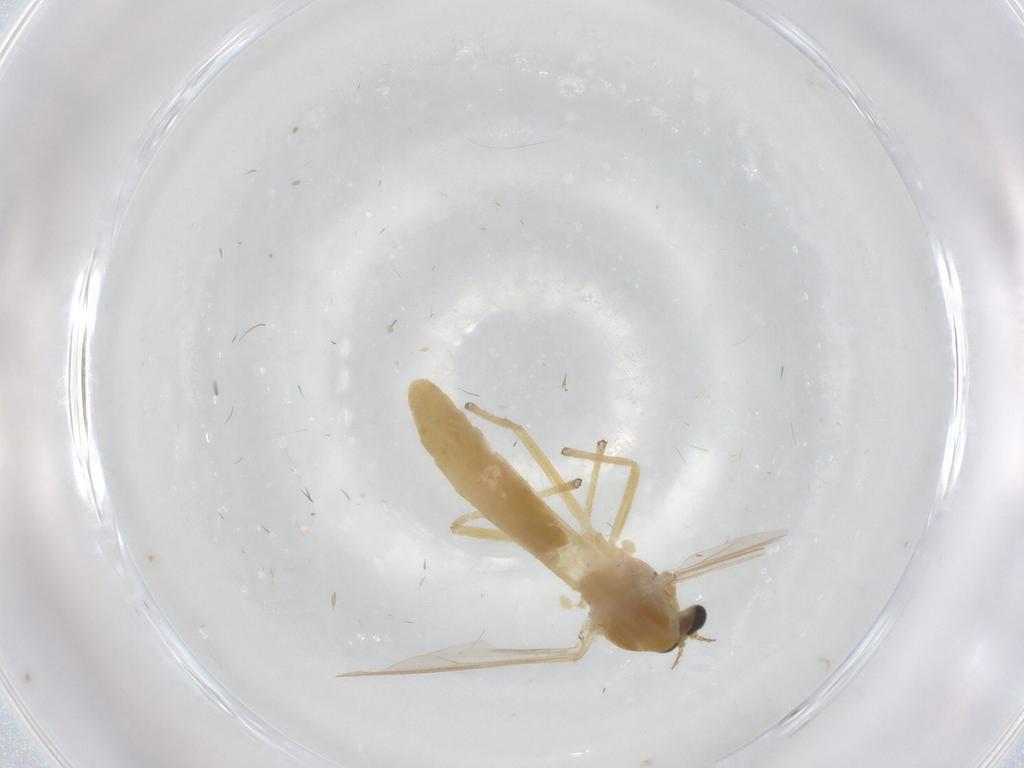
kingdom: Animalia
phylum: Arthropoda
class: Insecta
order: Diptera
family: Chironomidae
